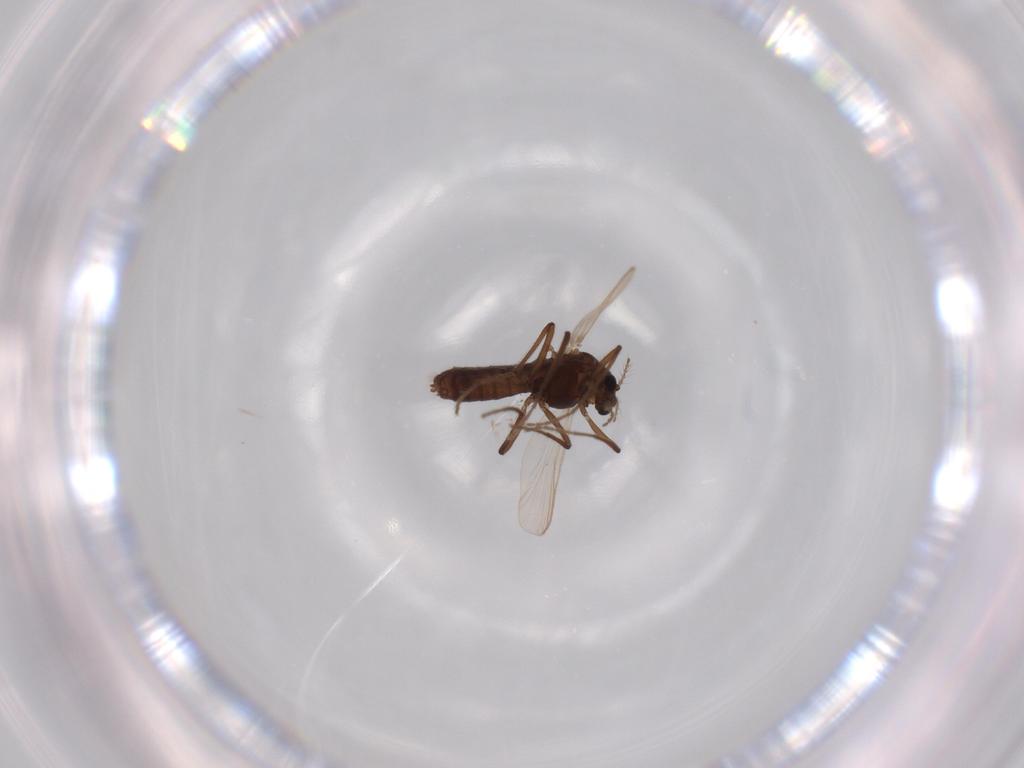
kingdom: Animalia
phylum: Arthropoda
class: Insecta
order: Diptera
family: Chironomidae
